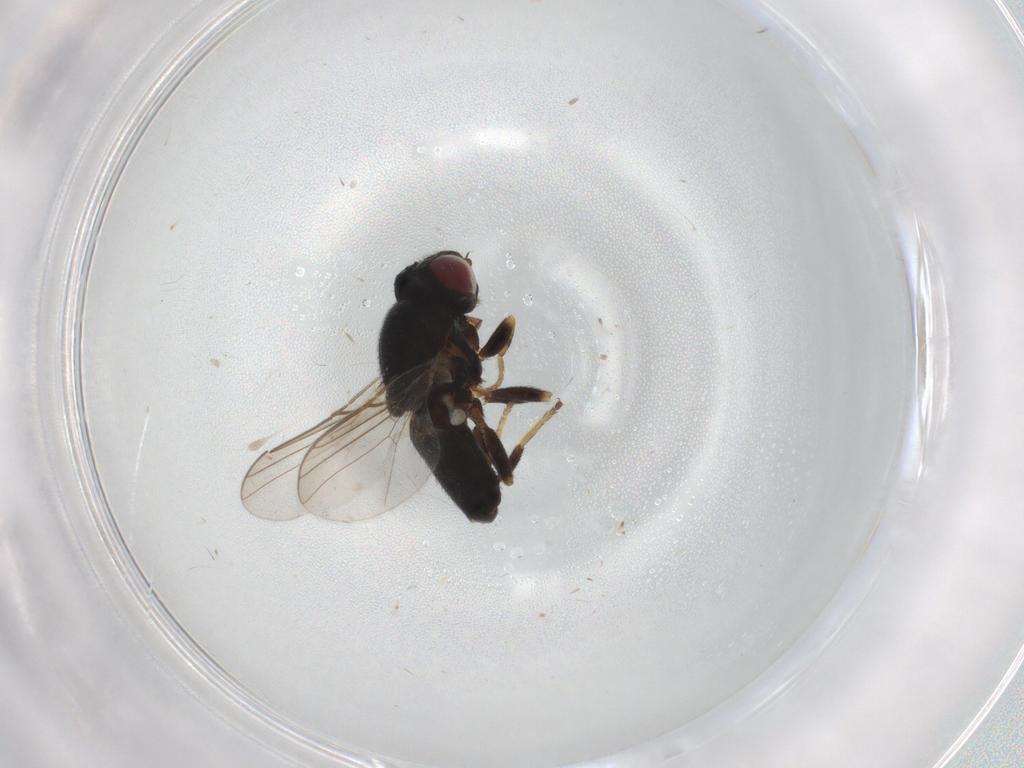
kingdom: Animalia
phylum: Arthropoda
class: Insecta
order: Diptera
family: Chloropidae
